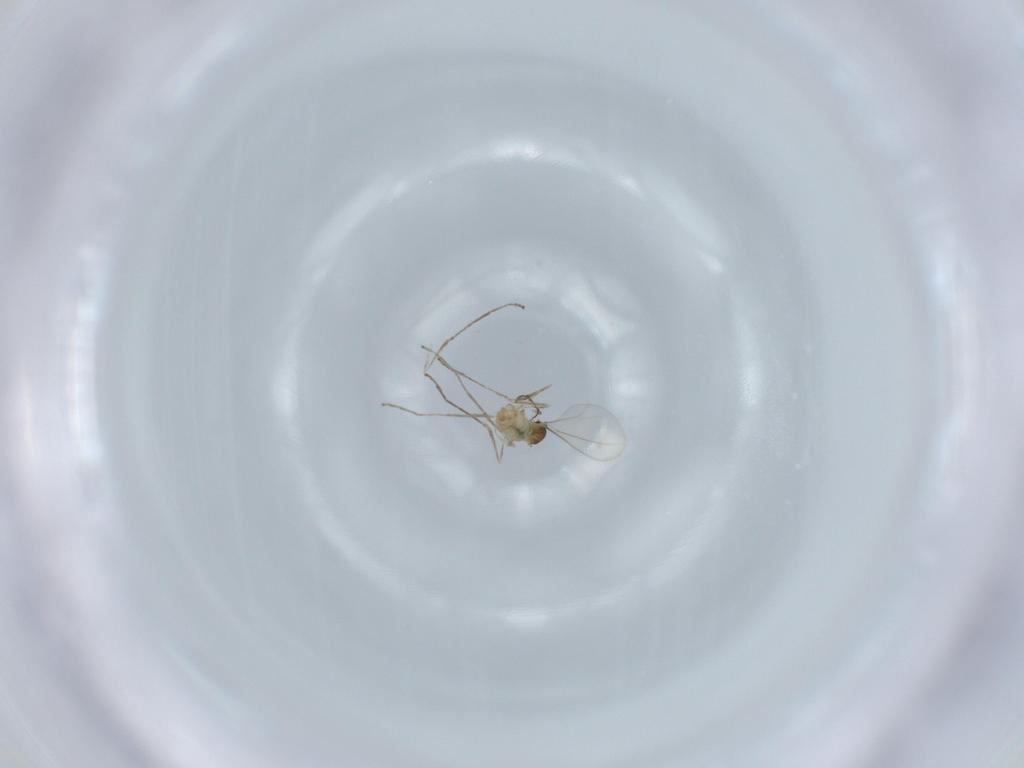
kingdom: Animalia
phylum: Arthropoda
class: Insecta
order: Diptera
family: Cecidomyiidae
